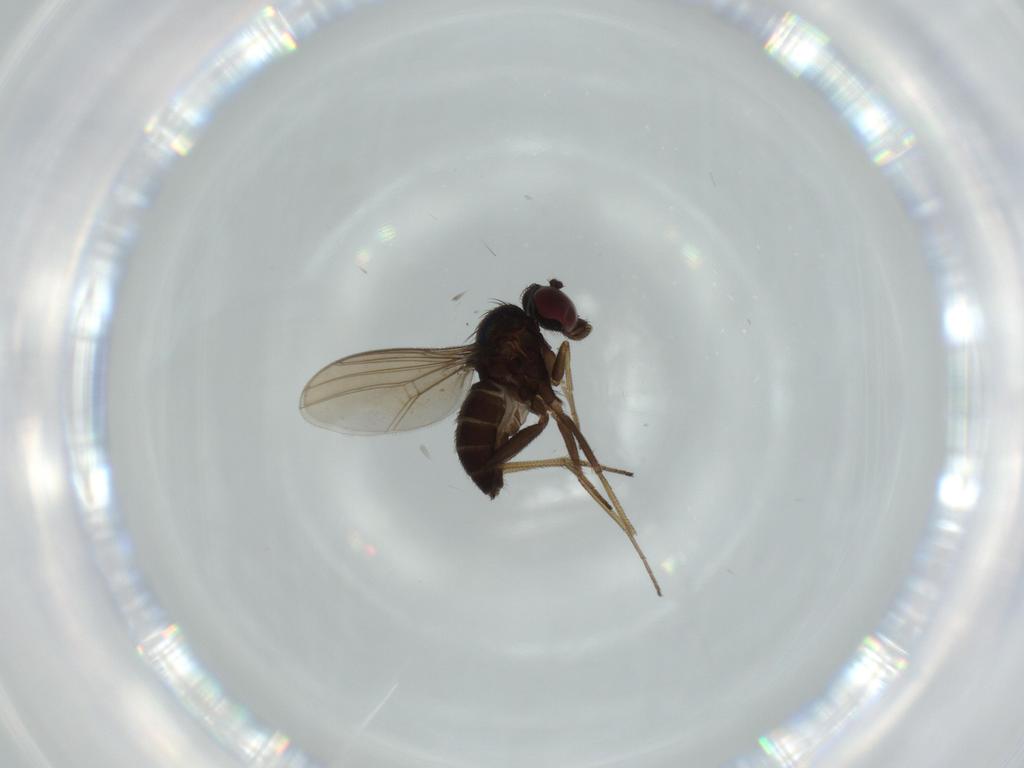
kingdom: Animalia
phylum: Arthropoda
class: Insecta
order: Diptera
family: Dolichopodidae
